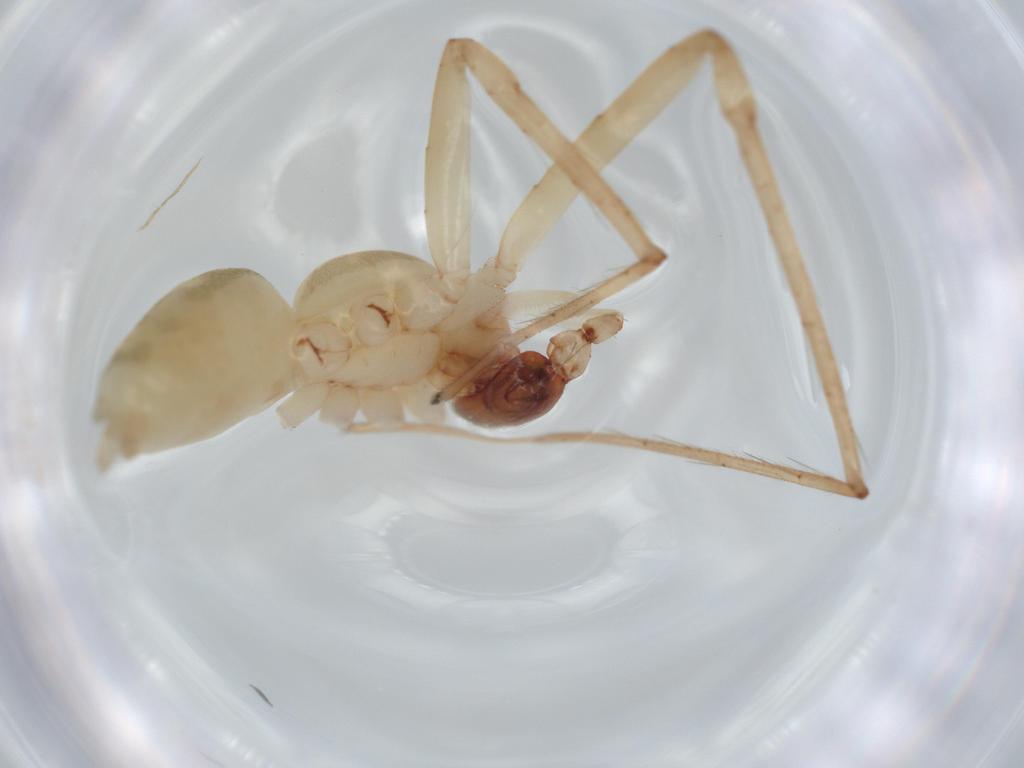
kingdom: Animalia
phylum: Arthropoda
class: Arachnida
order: Araneae
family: Anyphaenidae
